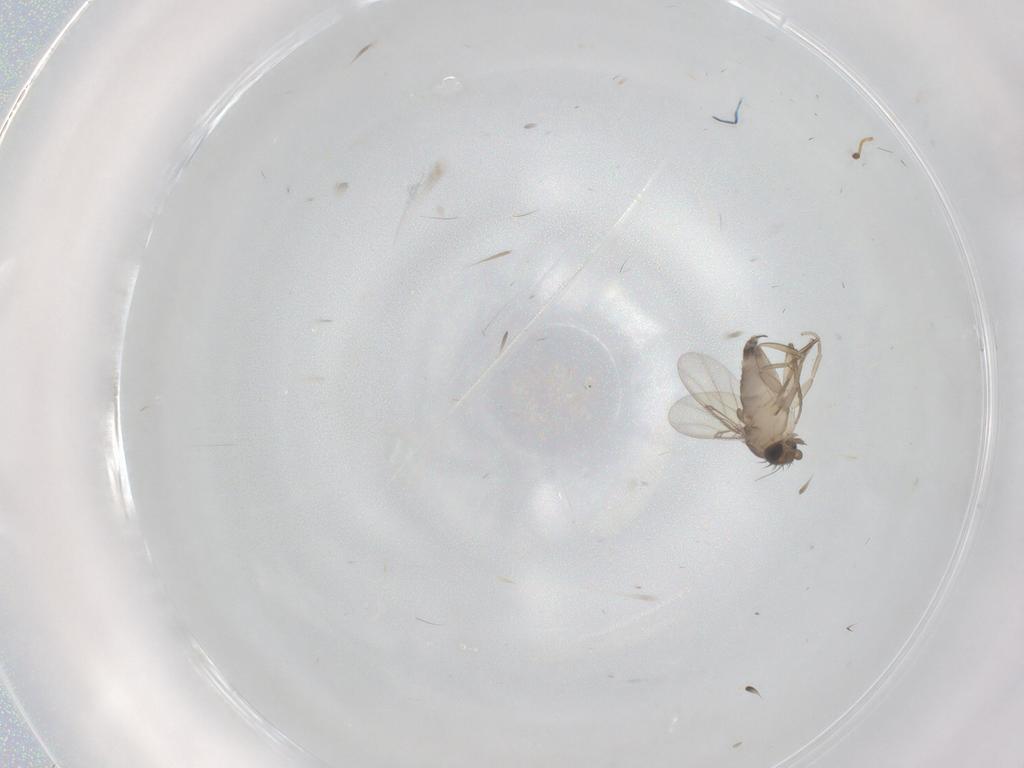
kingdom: Animalia
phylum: Arthropoda
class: Insecta
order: Diptera
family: Phoridae
